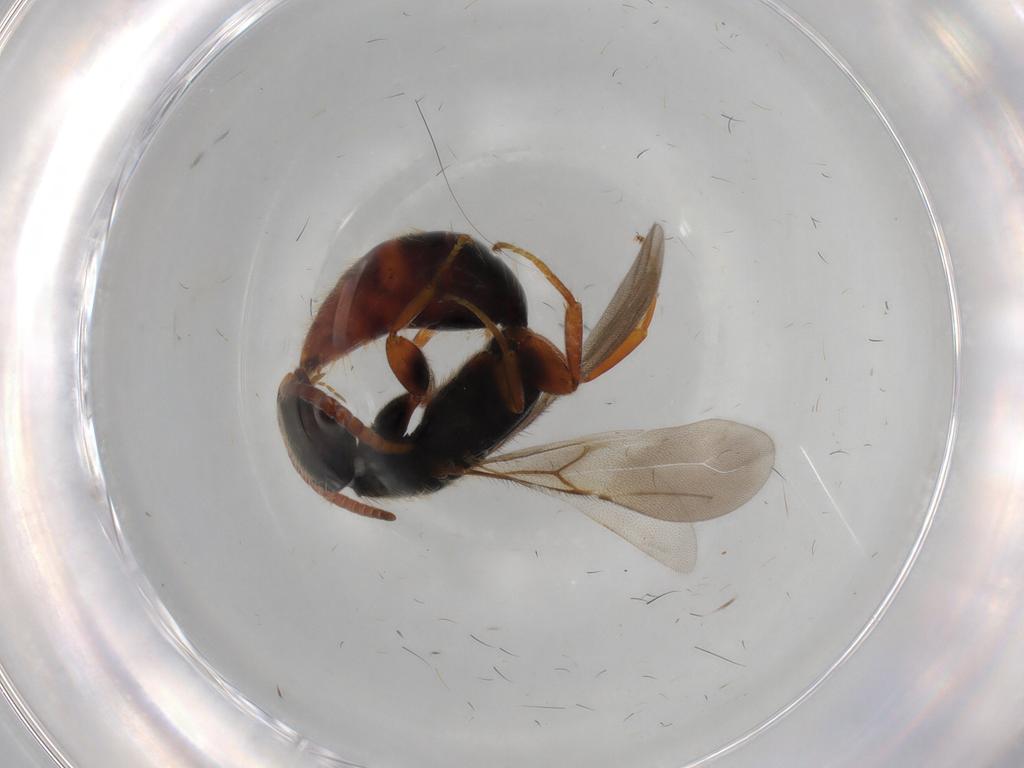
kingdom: Animalia
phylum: Arthropoda
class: Insecta
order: Hymenoptera
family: Bethylidae
